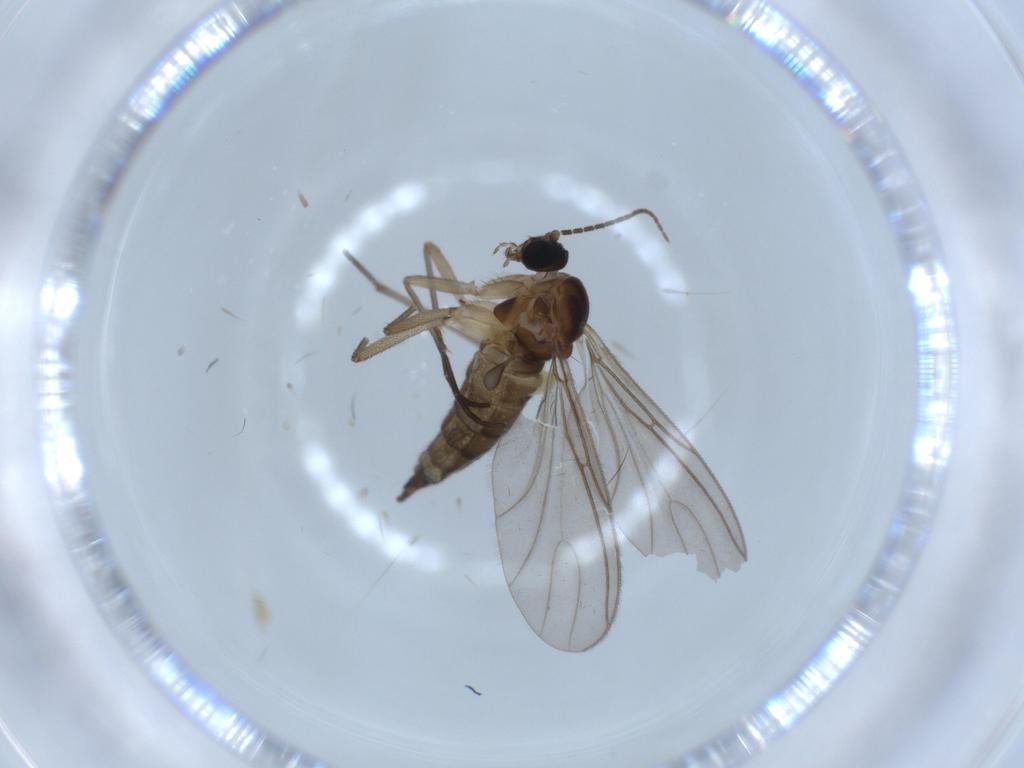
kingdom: Animalia
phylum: Arthropoda
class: Insecta
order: Diptera
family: Sciaridae
